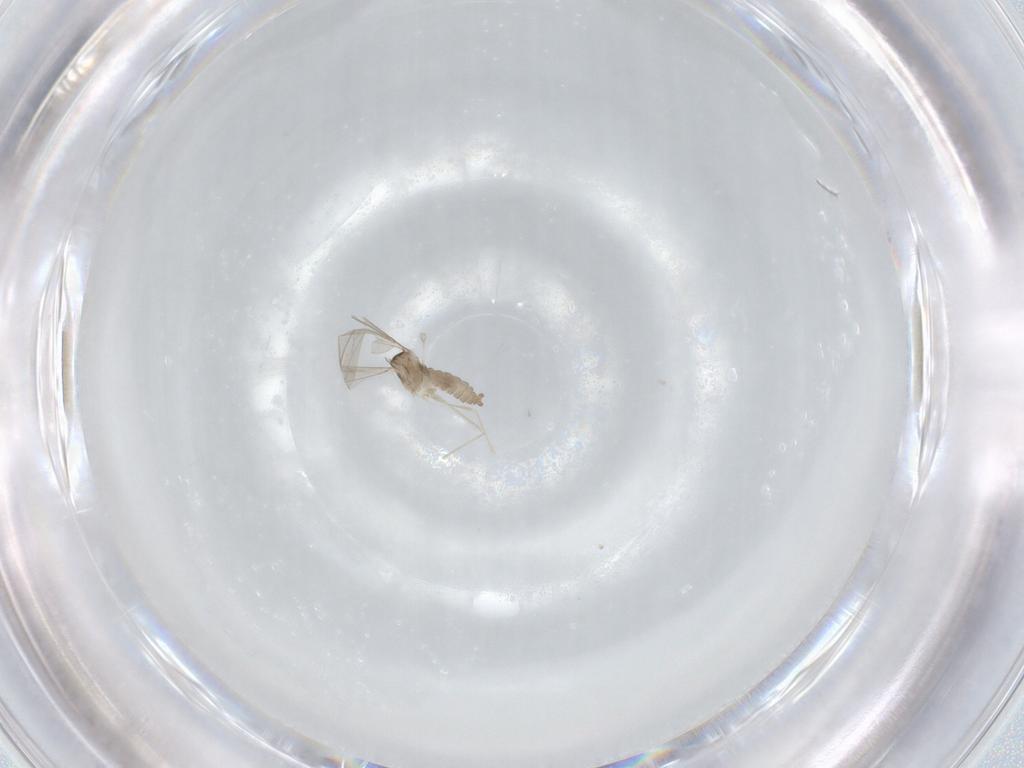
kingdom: Animalia
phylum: Arthropoda
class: Insecta
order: Diptera
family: Cecidomyiidae
